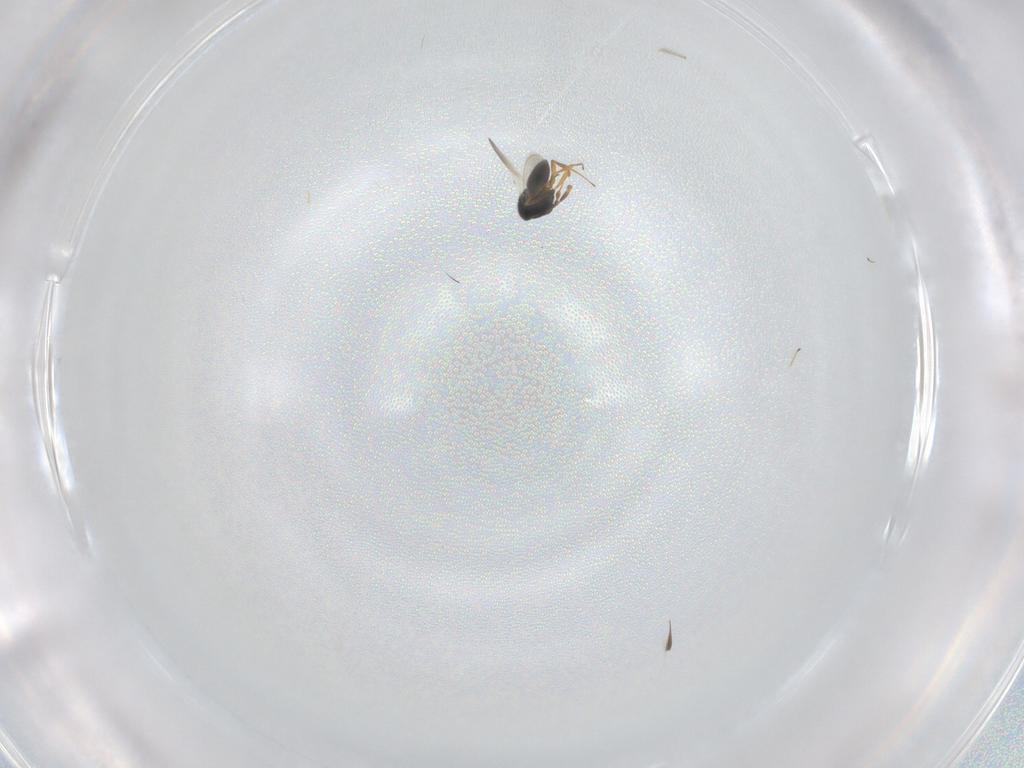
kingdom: Animalia
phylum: Arthropoda
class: Insecta
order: Hymenoptera
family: Scelionidae
